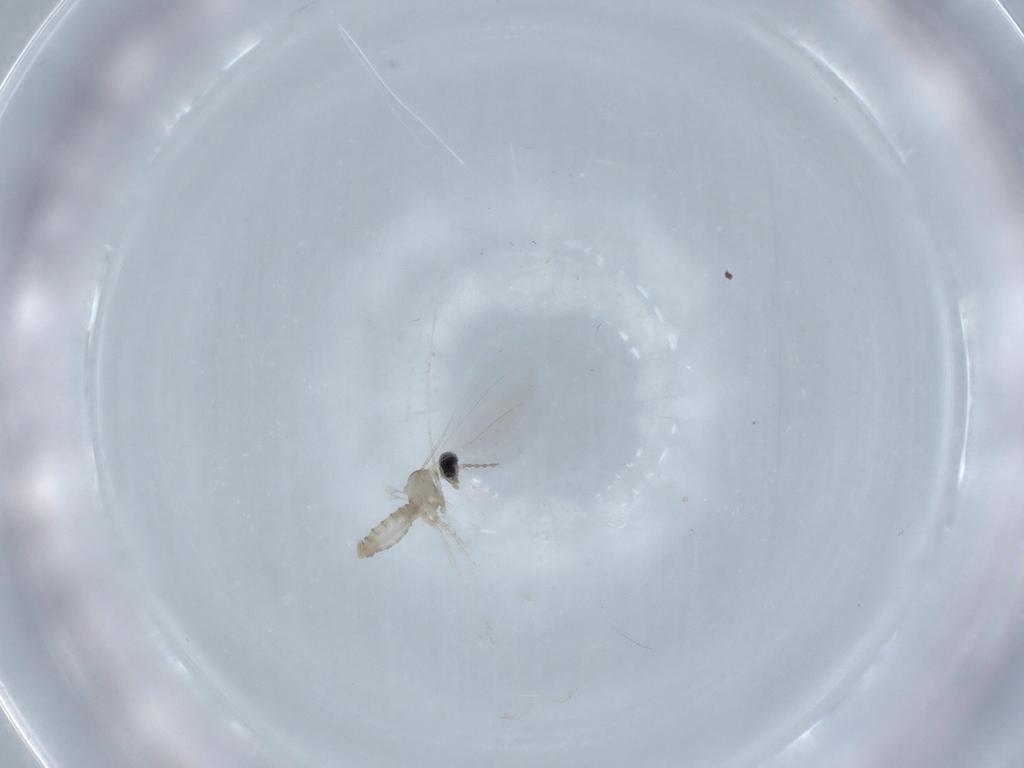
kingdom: Animalia
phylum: Arthropoda
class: Insecta
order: Diptera
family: Cecidomyiidae
